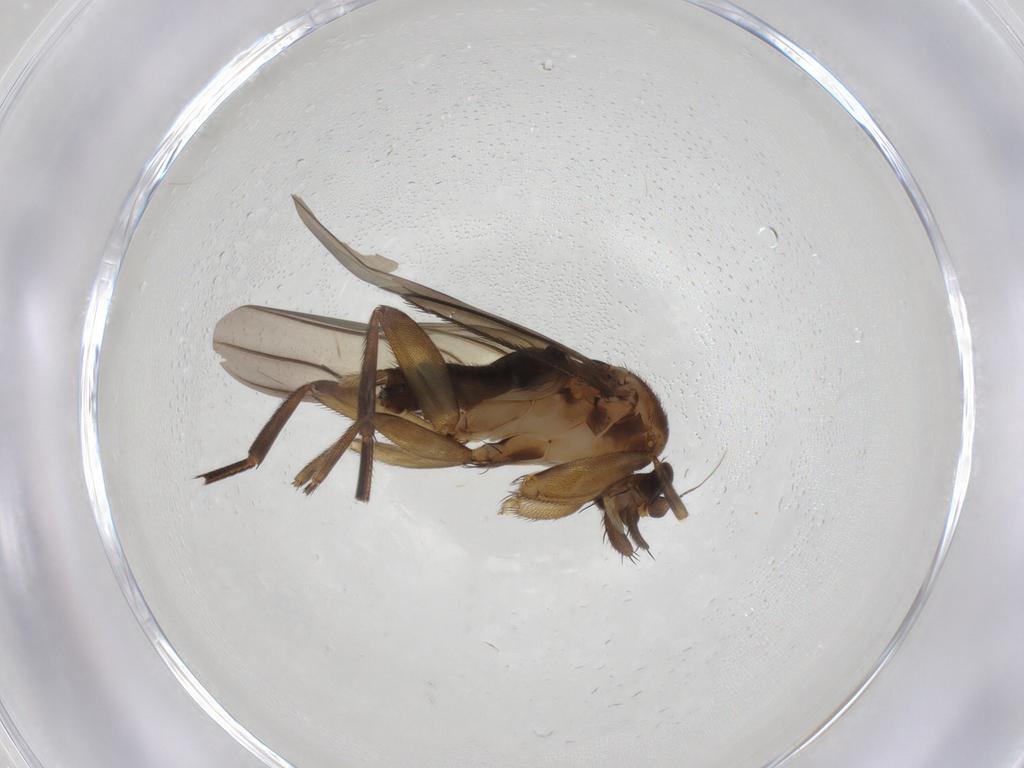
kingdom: Animalia
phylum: Arthropoda
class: Insecta
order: Diptera
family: Phoridae
